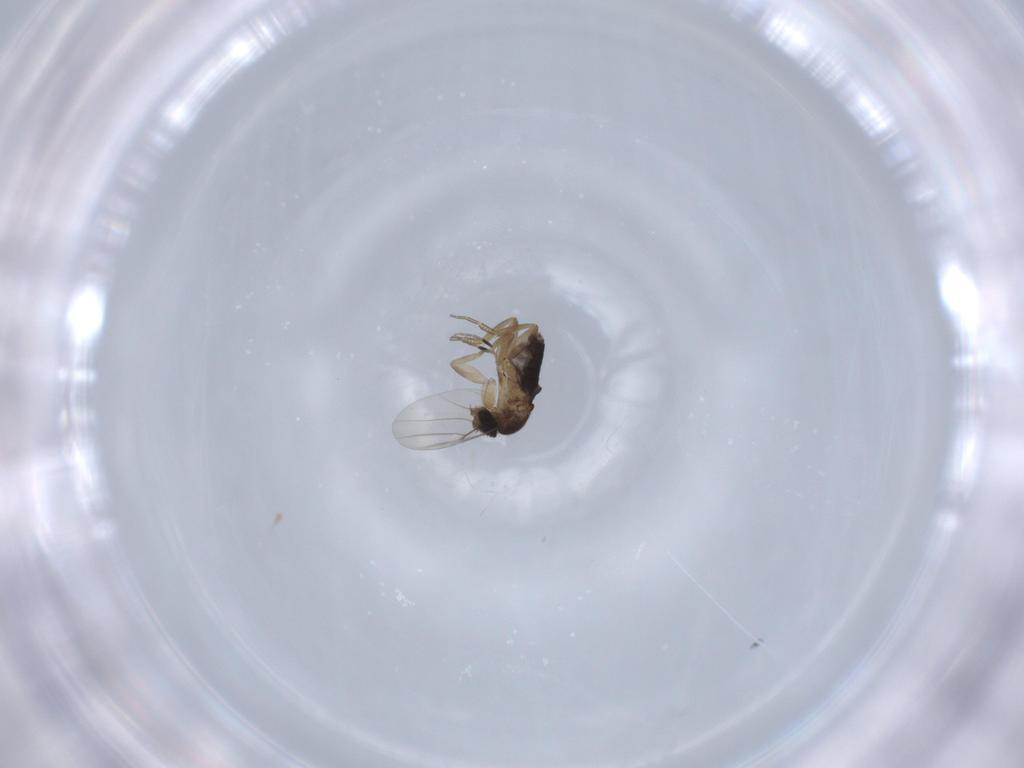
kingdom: Animalia
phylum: Arthropoda
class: Insecta
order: Diptera
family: Phoridae
